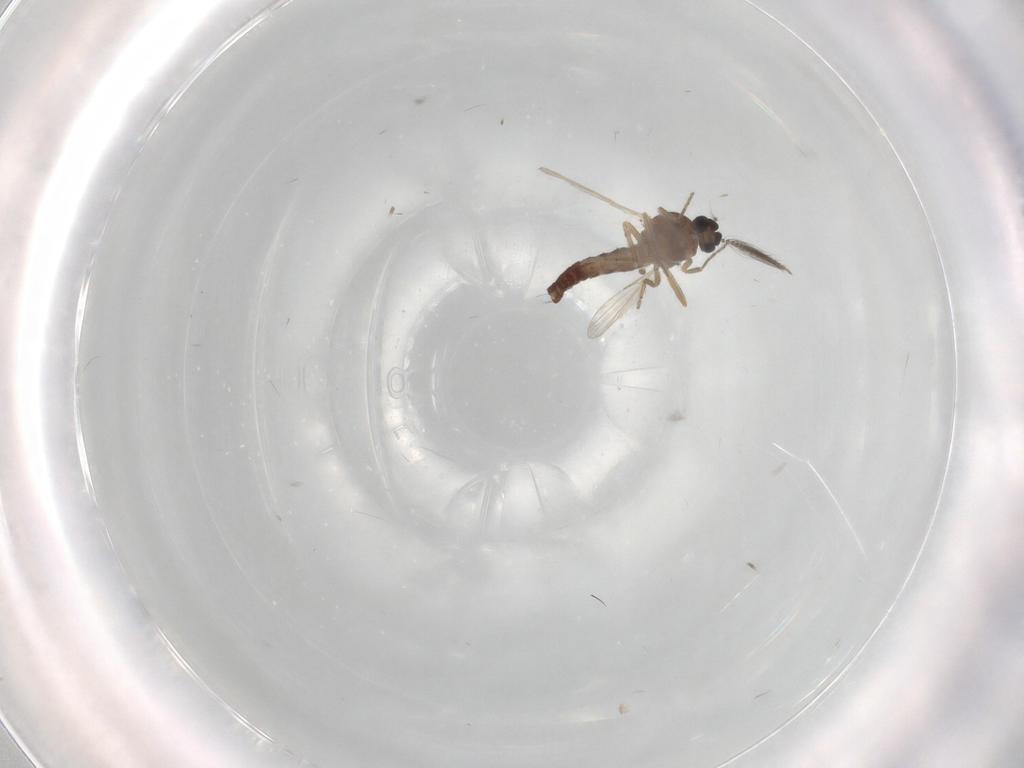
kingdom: Animalia
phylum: Arthropoda
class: Insecta
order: Diptera
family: Ceratopogonidae
